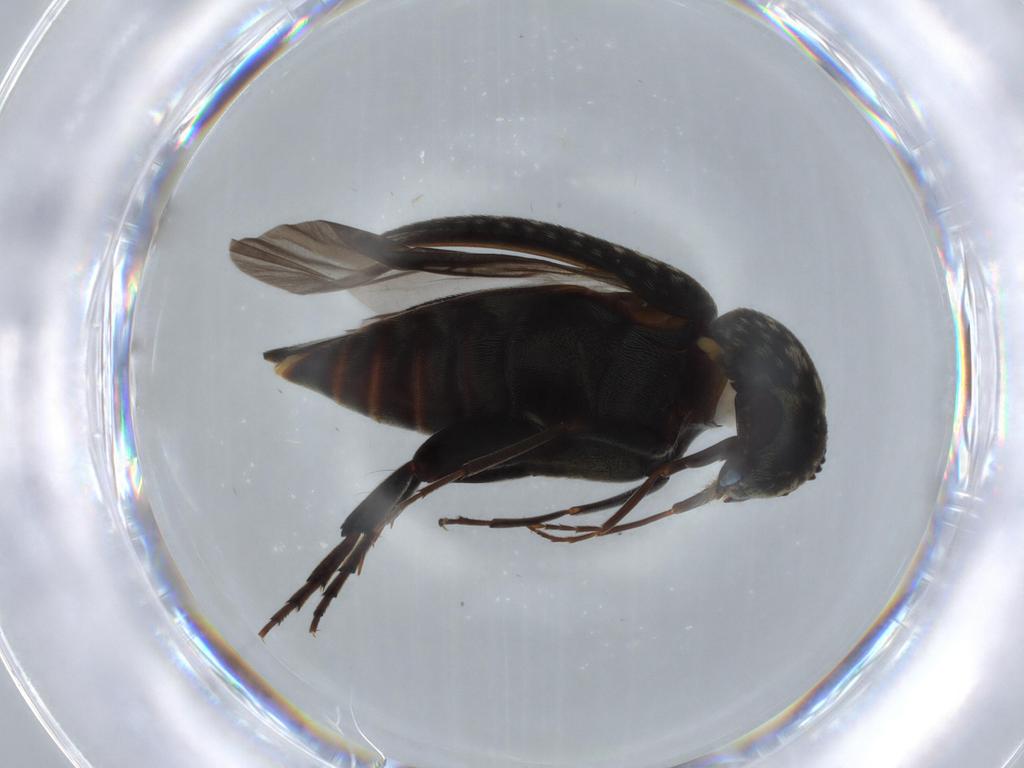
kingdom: Animalia
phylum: Arthropoda
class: Insecta
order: Coleoptera
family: Mordellidae
